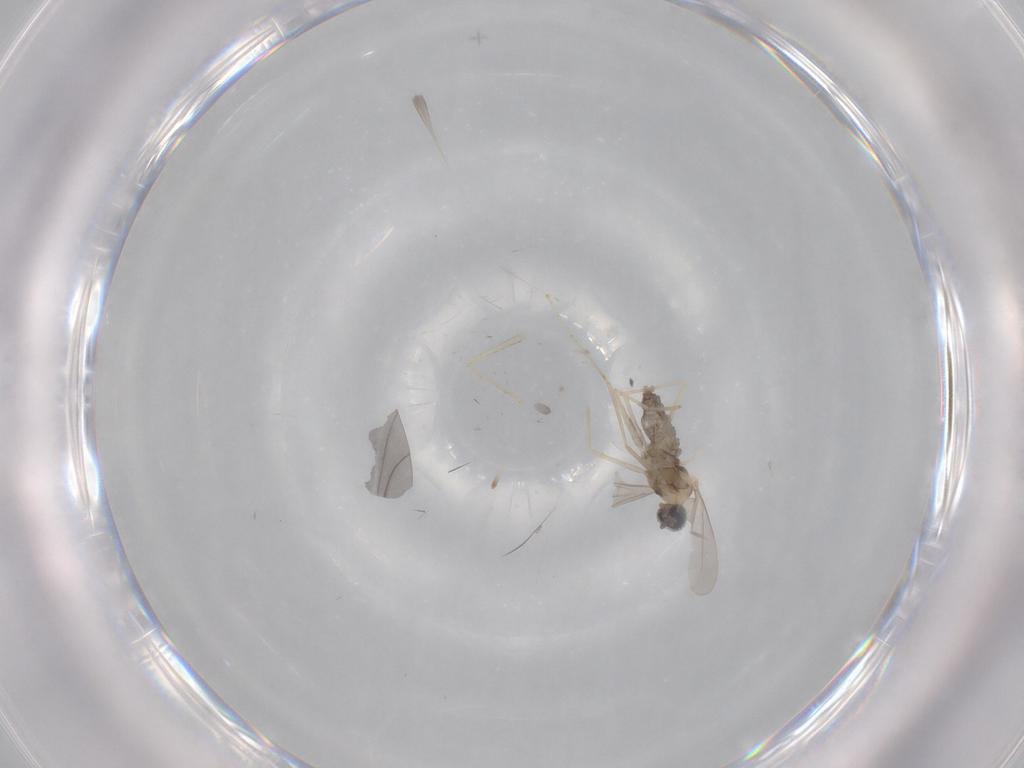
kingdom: Animalia
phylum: Arthropoda
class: Insecta
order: Diptera
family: Cecidomyiidae
